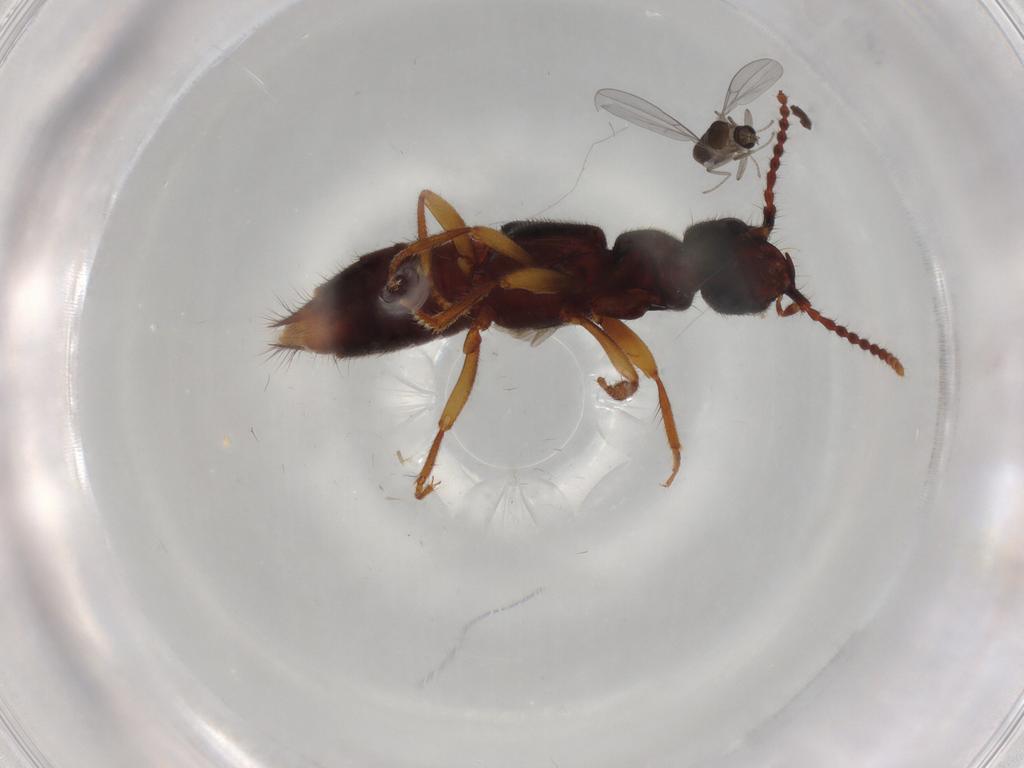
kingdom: Animalia
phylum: Arthropoda
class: Insecta
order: Diptera
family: Cecidomyiidae
